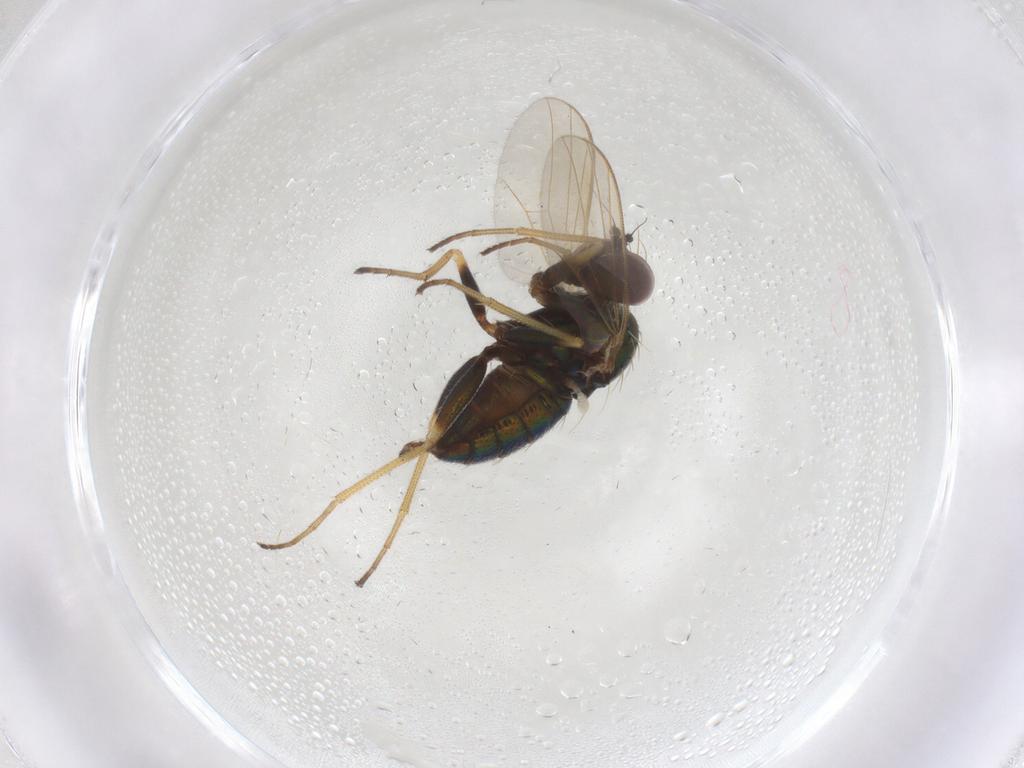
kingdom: Animalia
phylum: Arthropoda
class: Insecta
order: Diptera
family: Dolichopodidae
